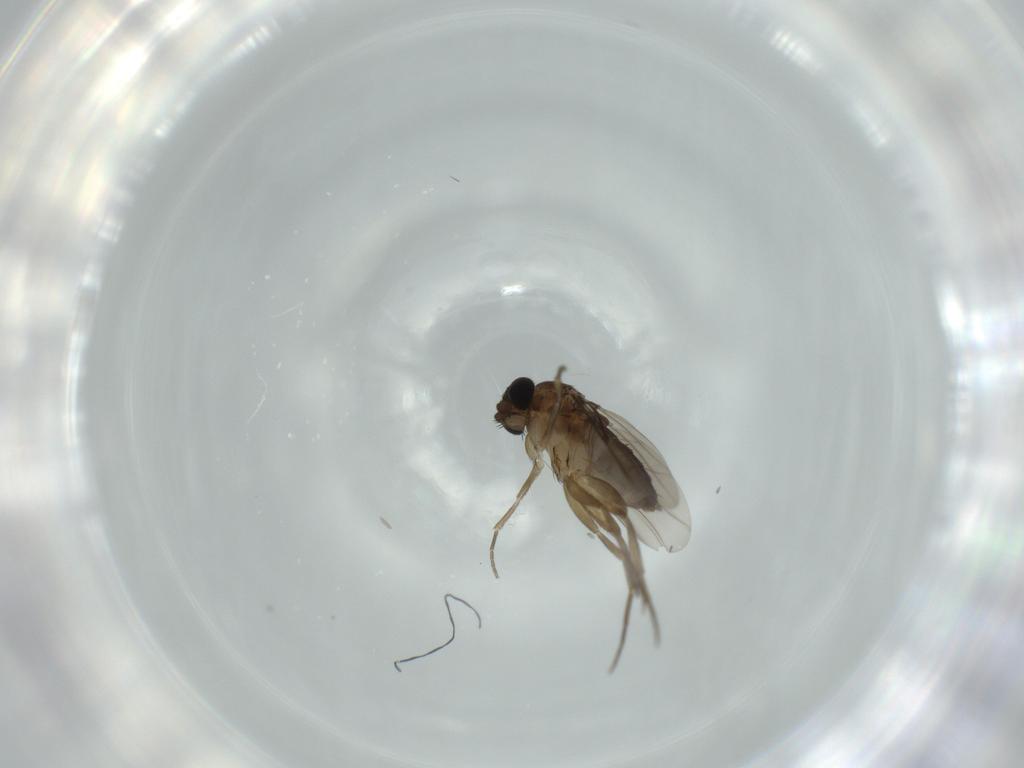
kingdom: Animalia
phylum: Arthropoda
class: Insecta
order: Diptera
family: Phoridae
